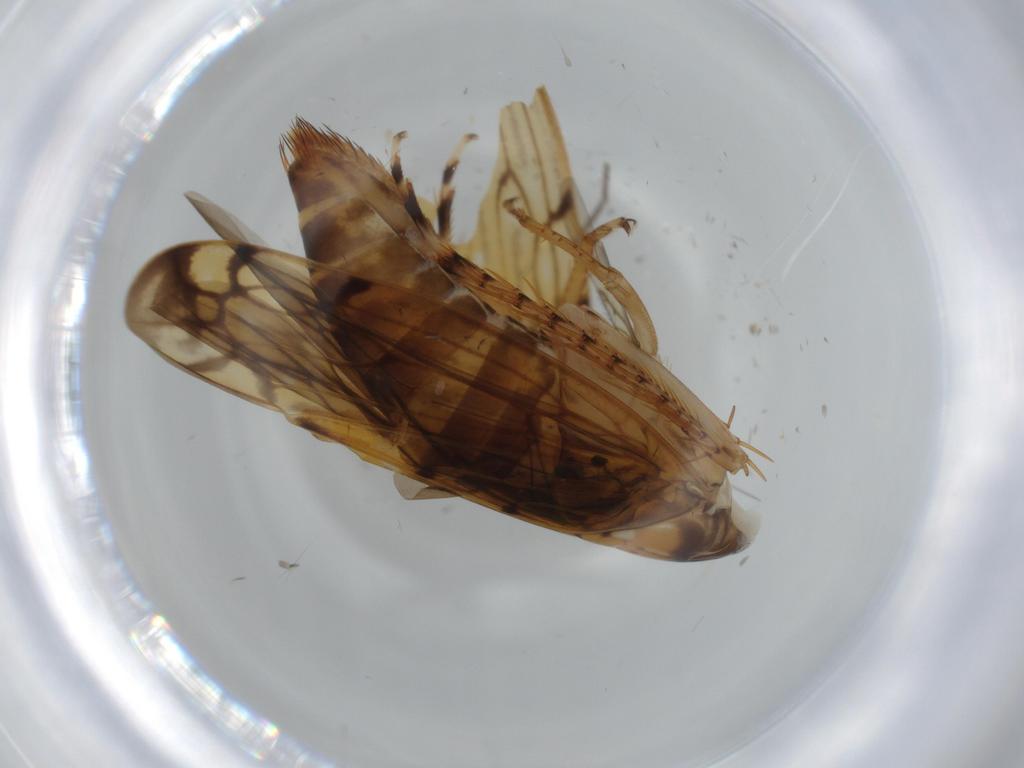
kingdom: Animalia
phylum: Arthropoda
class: Insecta
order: Hemiptera
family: Cicadellidae
